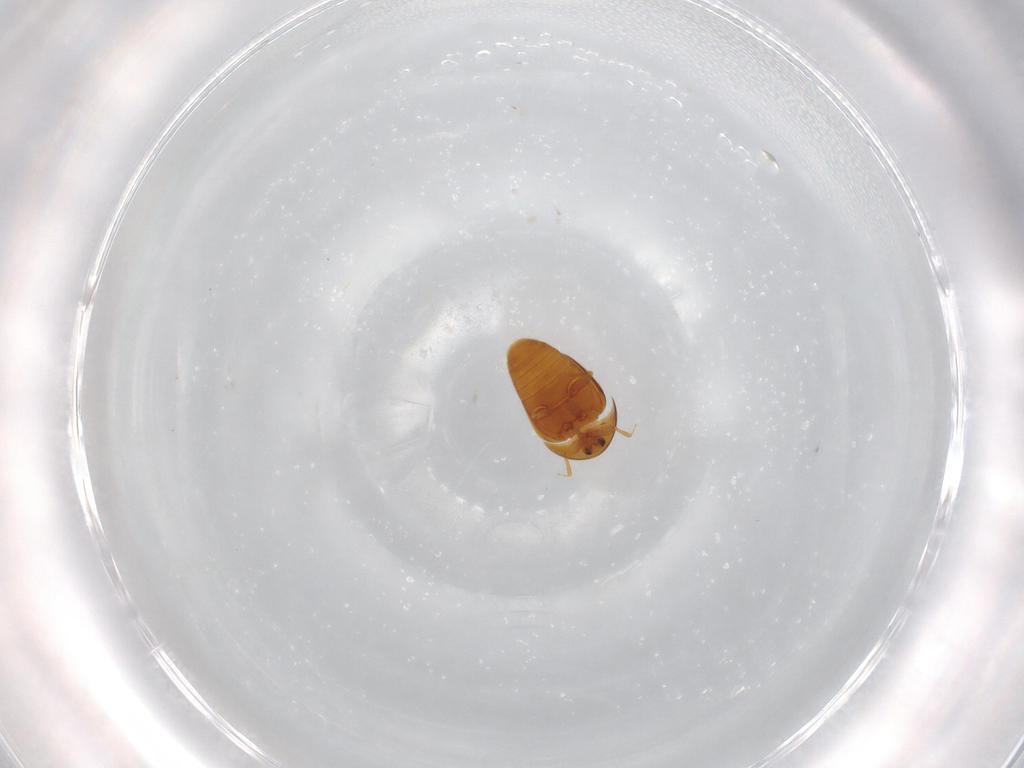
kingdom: Animalia
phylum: Arthropoda
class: Insecta
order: Coleoptera
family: Corylophidae
